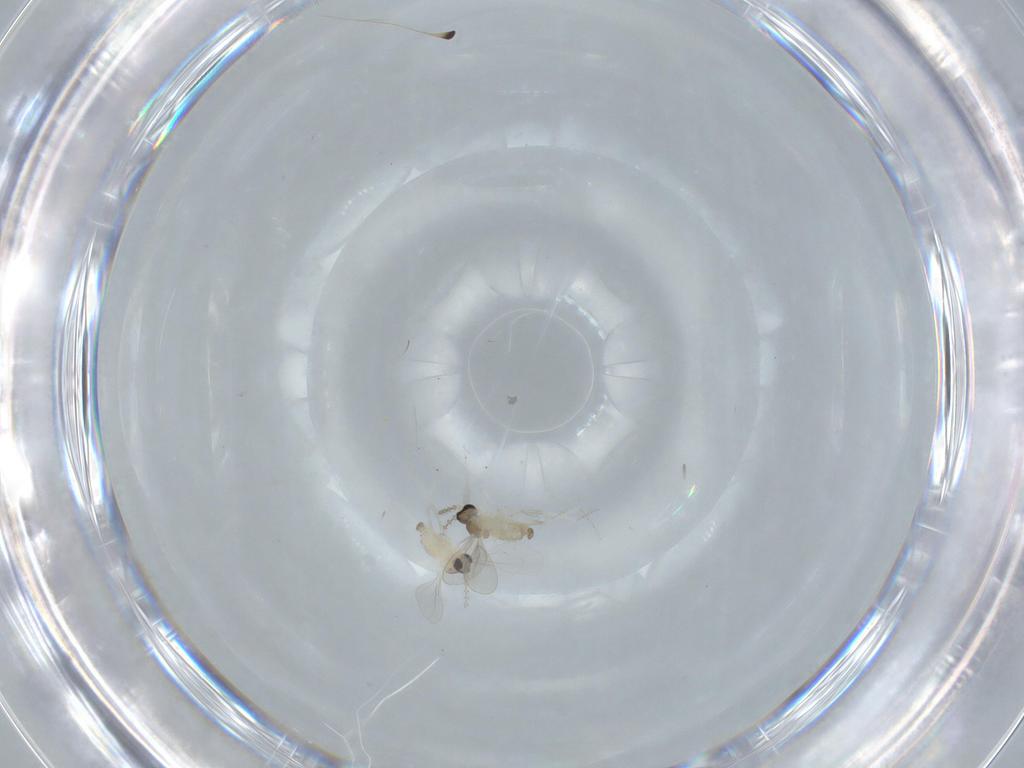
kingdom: Animalia
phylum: Arthropoda
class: Insecta
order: Diptera
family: Cecidomyiidae
